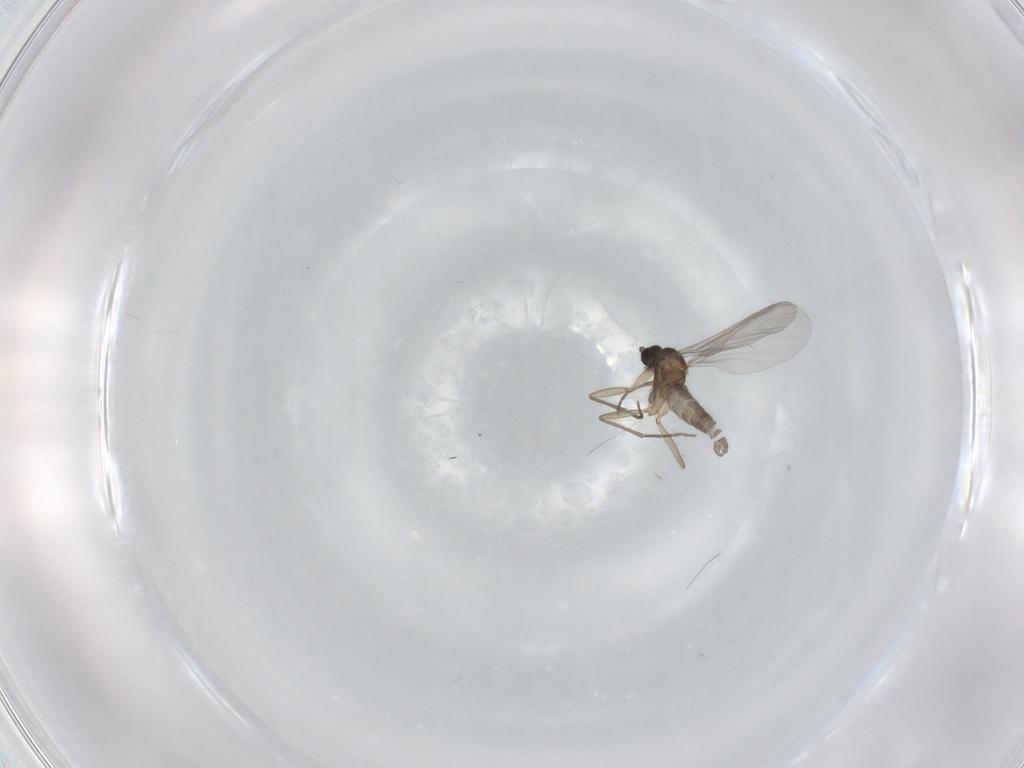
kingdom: Animalia
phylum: Arthropoda
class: Insecta
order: Diptera
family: Sciaridae
